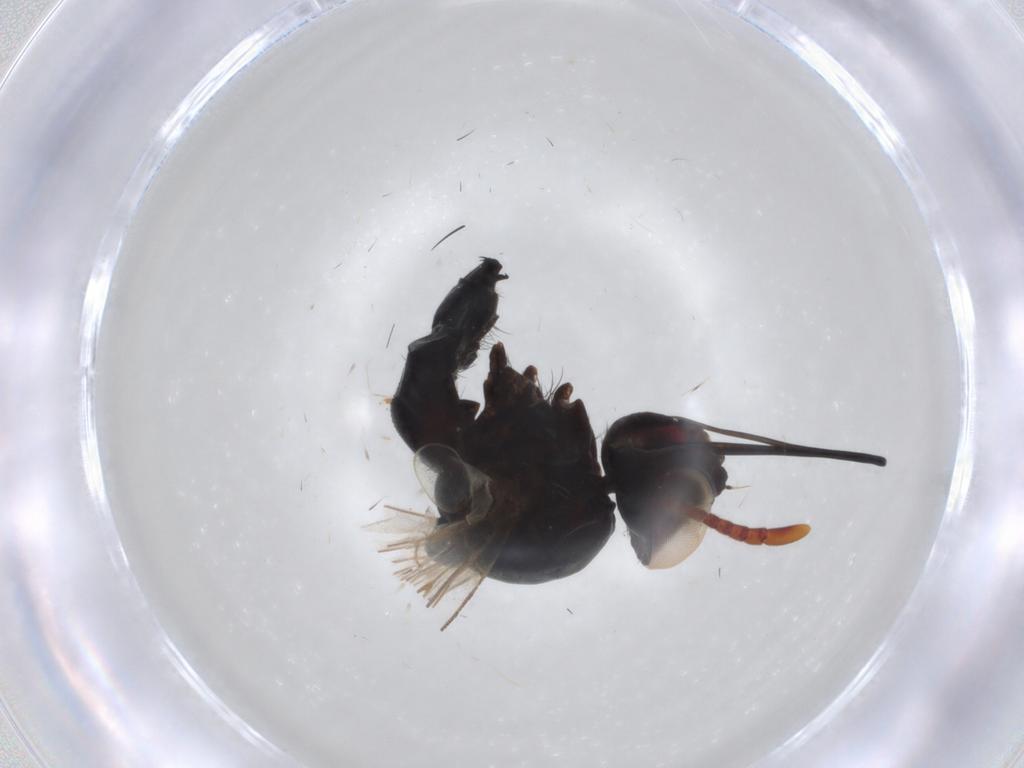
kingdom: Animalia
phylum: Arthropoda
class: Insecta
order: Diptera
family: Tachinidae
